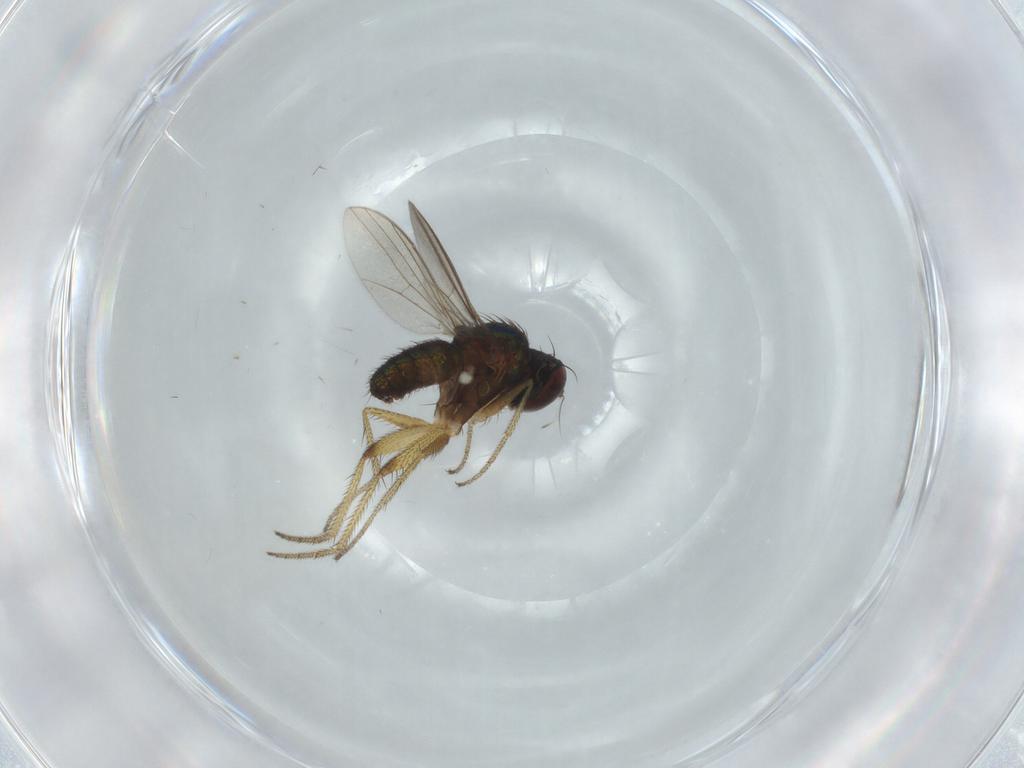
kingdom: Animalia
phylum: Arthropoda
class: Insecta
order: Diptera
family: Dolichopodidae
